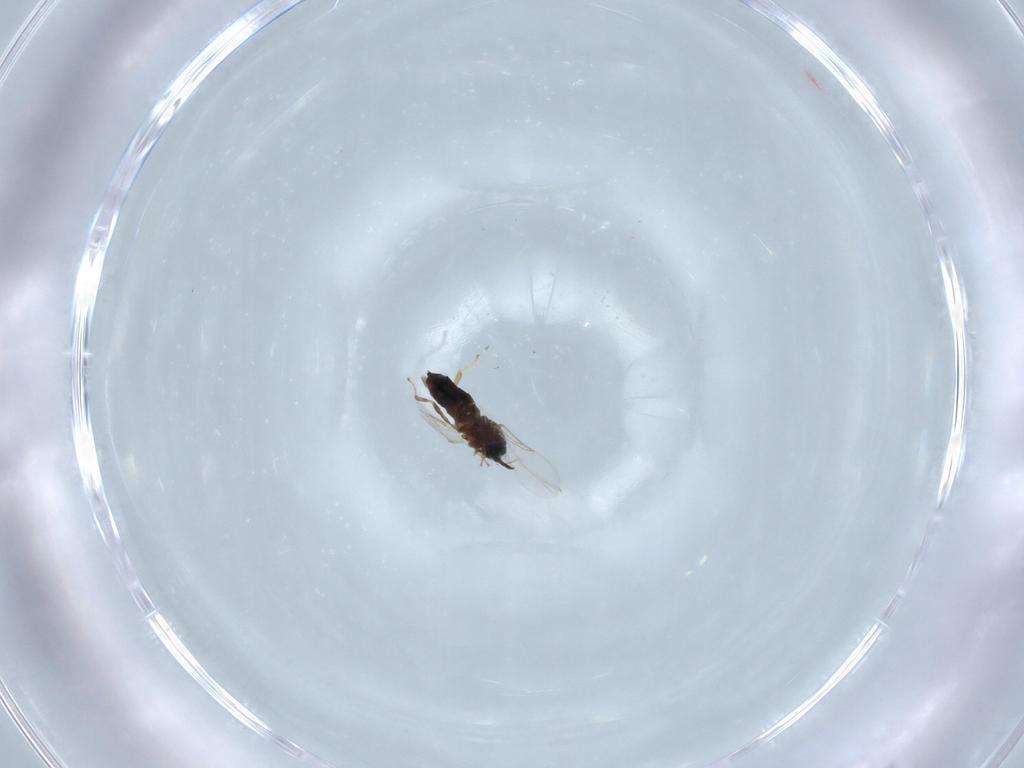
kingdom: Animalia
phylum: Arthropoda
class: Insecta
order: Diptera
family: Scatopsidae
